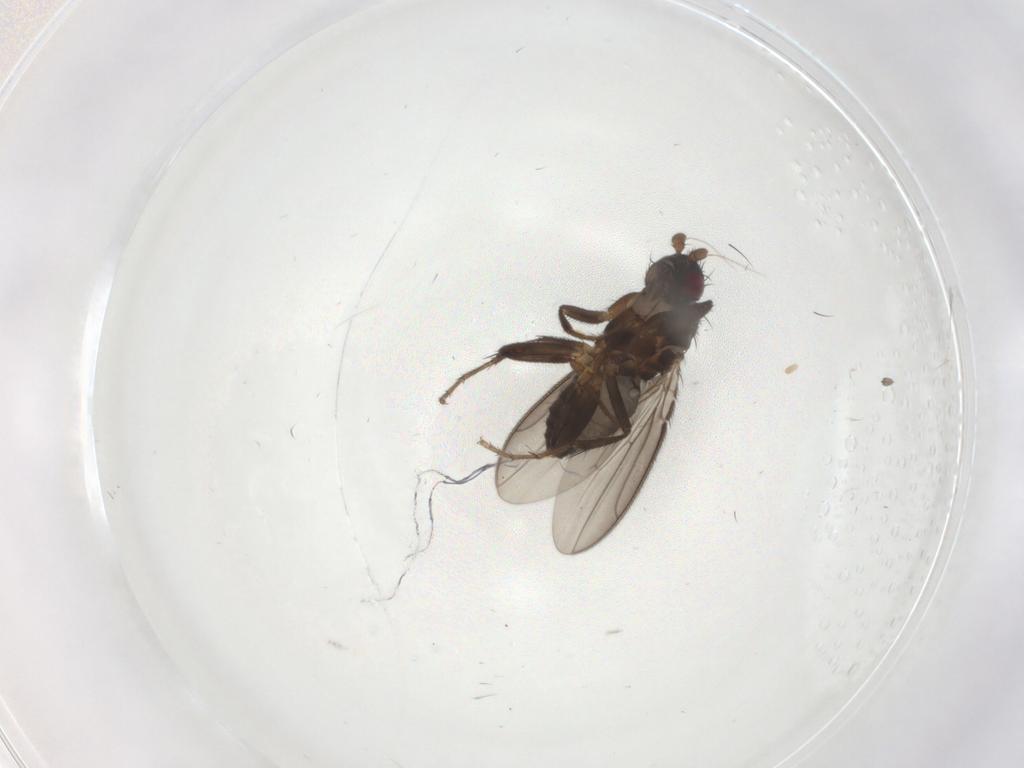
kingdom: Animalia
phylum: Arthropoda
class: Insecta
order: Diptera
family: Sphaeroceridae
